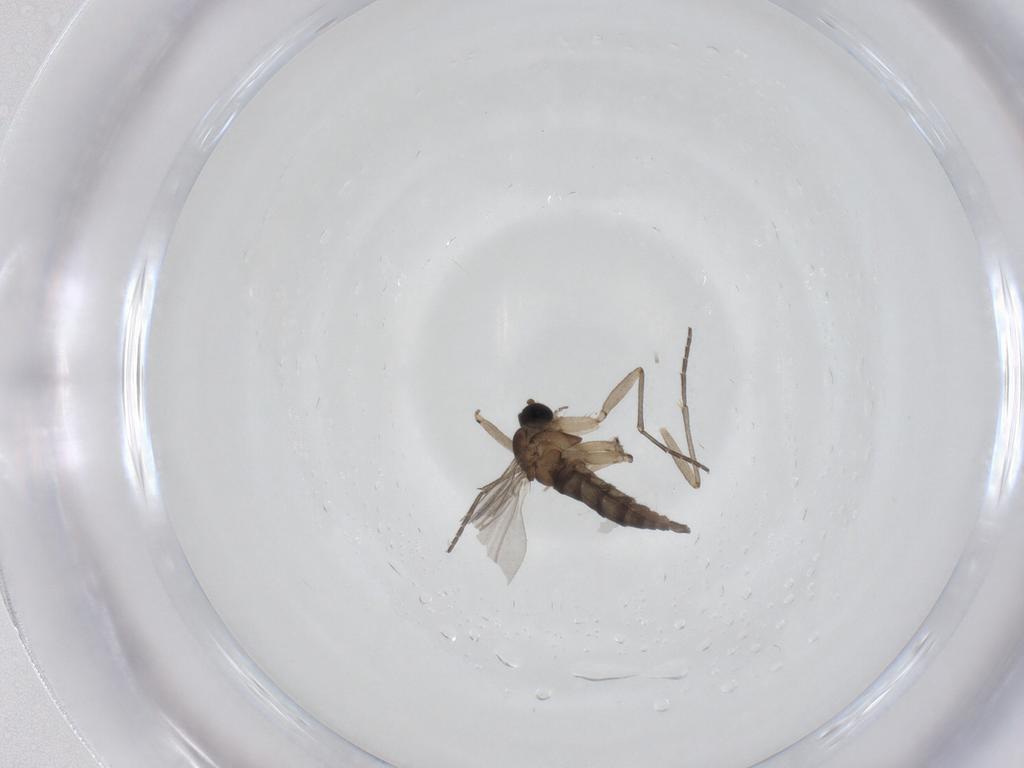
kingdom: Animalia
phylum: Arthropoda
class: Insecta
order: Diptera
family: Sciaridae
